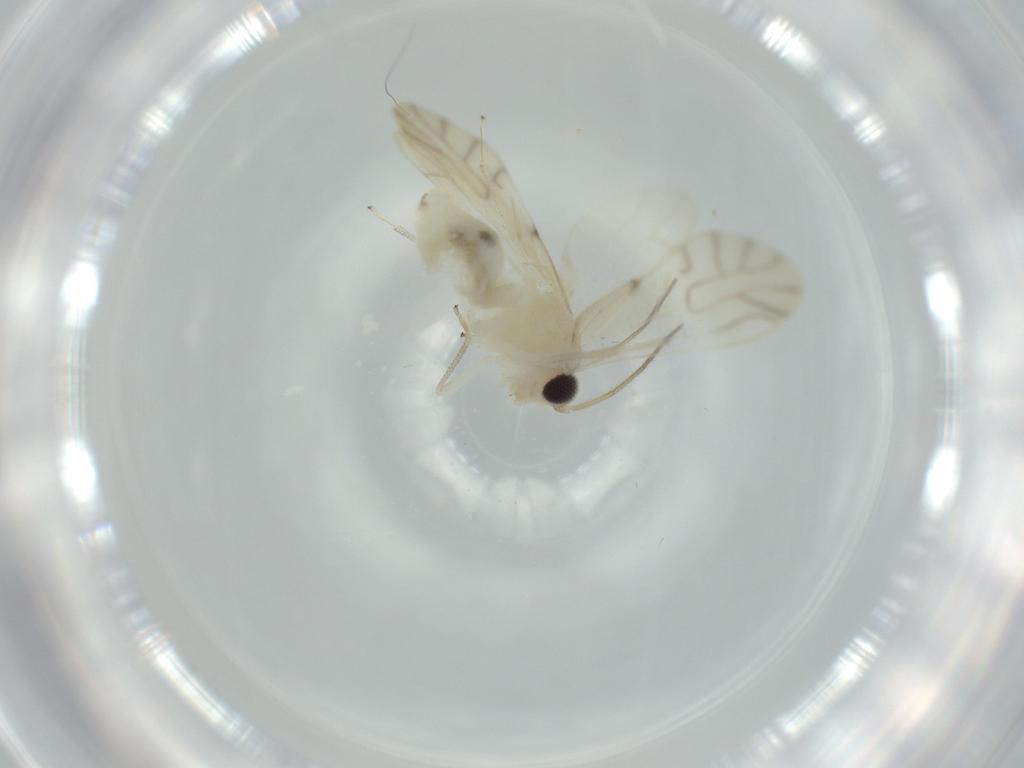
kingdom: Animalia
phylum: Arthropoda
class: Insecta
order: Psocodea
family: Caeciliusidae
